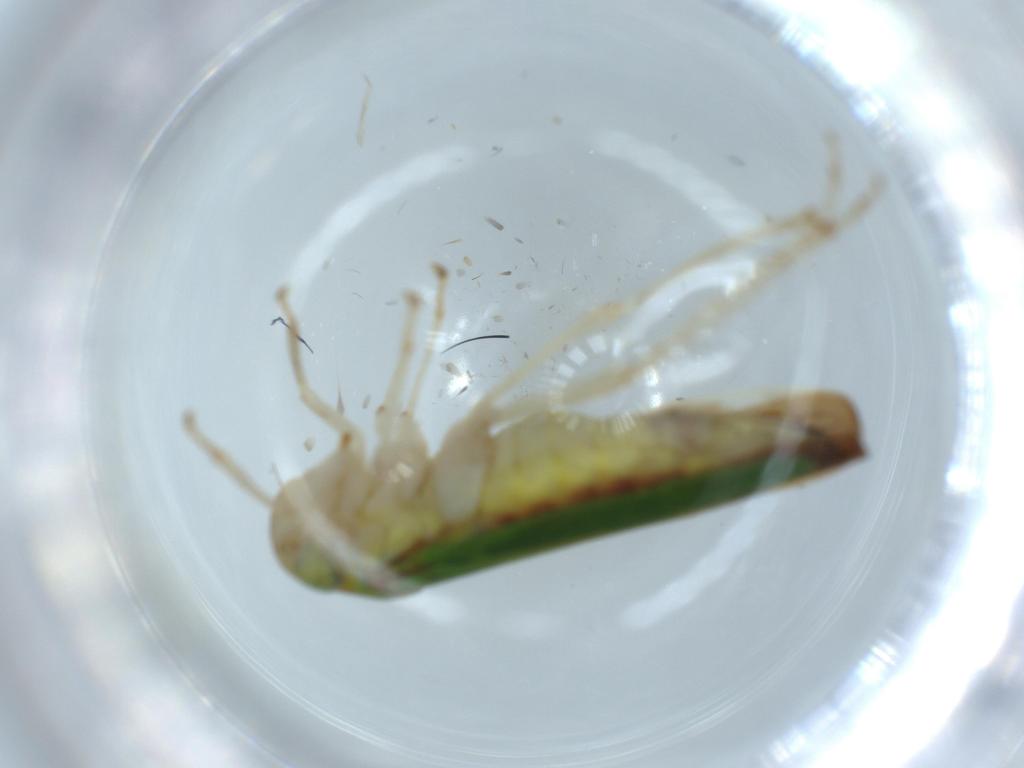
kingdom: Animalia
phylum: Arthropoda
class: Insecta
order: Hemiptera
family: Cicadellidae
